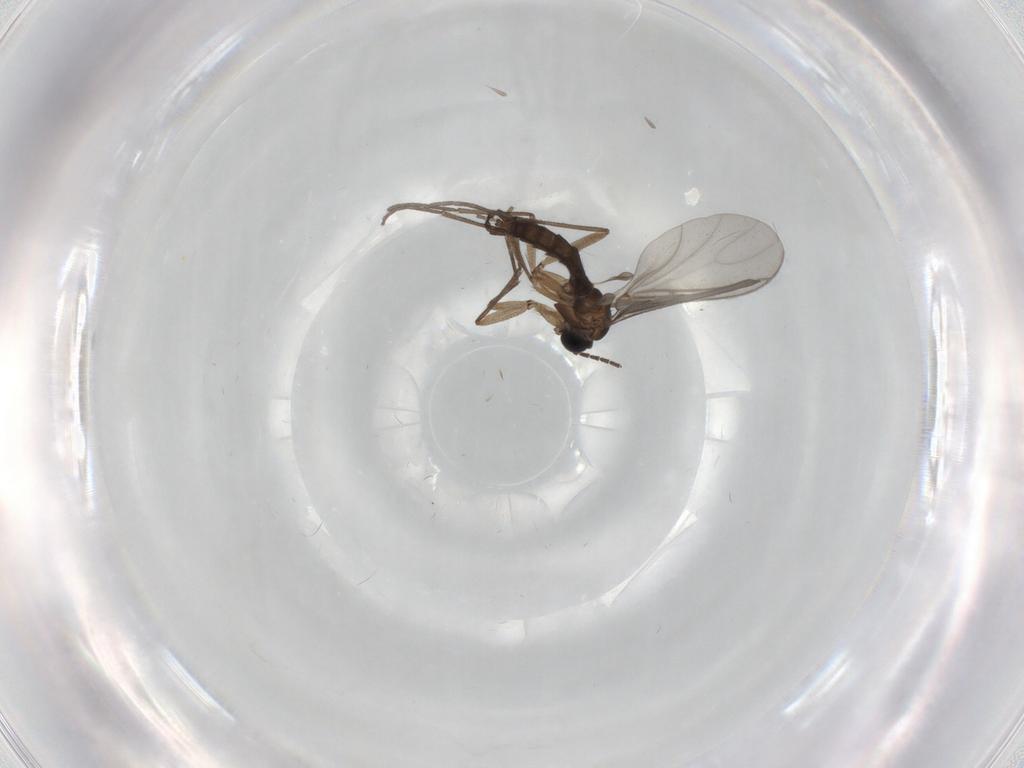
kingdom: Animalia
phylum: Arthropoda
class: Insecta
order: Diptera
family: Sciaridae
